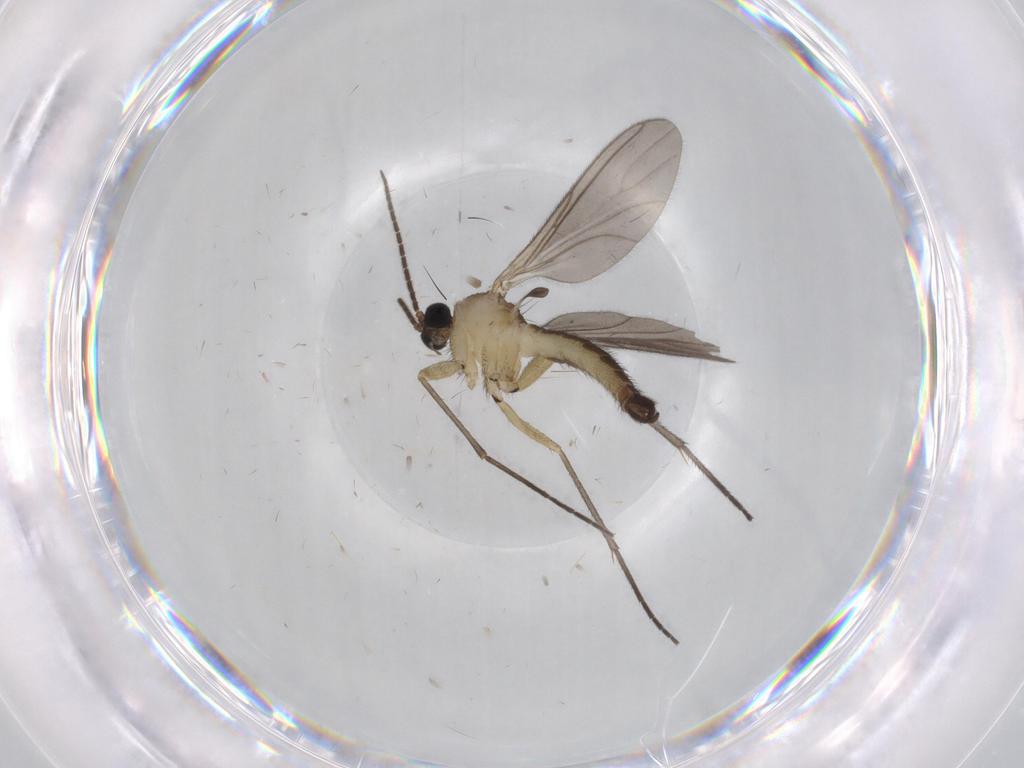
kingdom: Animalia
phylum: Arthropoda
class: Insecta
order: Diptera
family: Sciaridae
